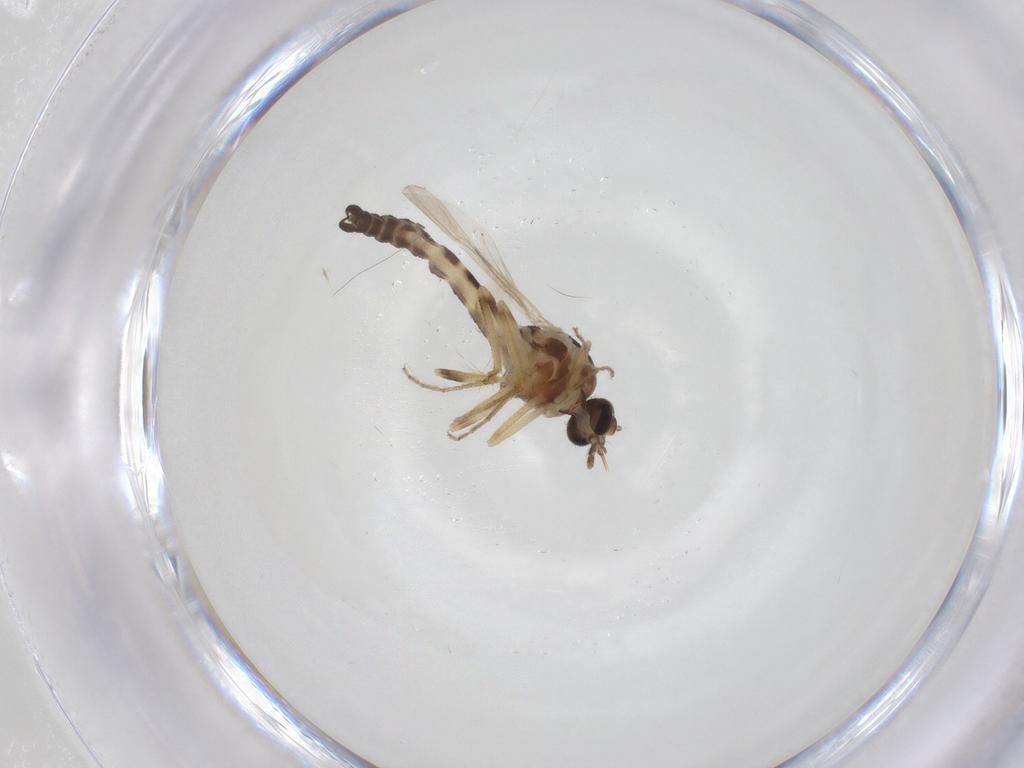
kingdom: Animalia
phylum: Arthropoda
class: Insecta
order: Diptera
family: Ceratopogonidae
